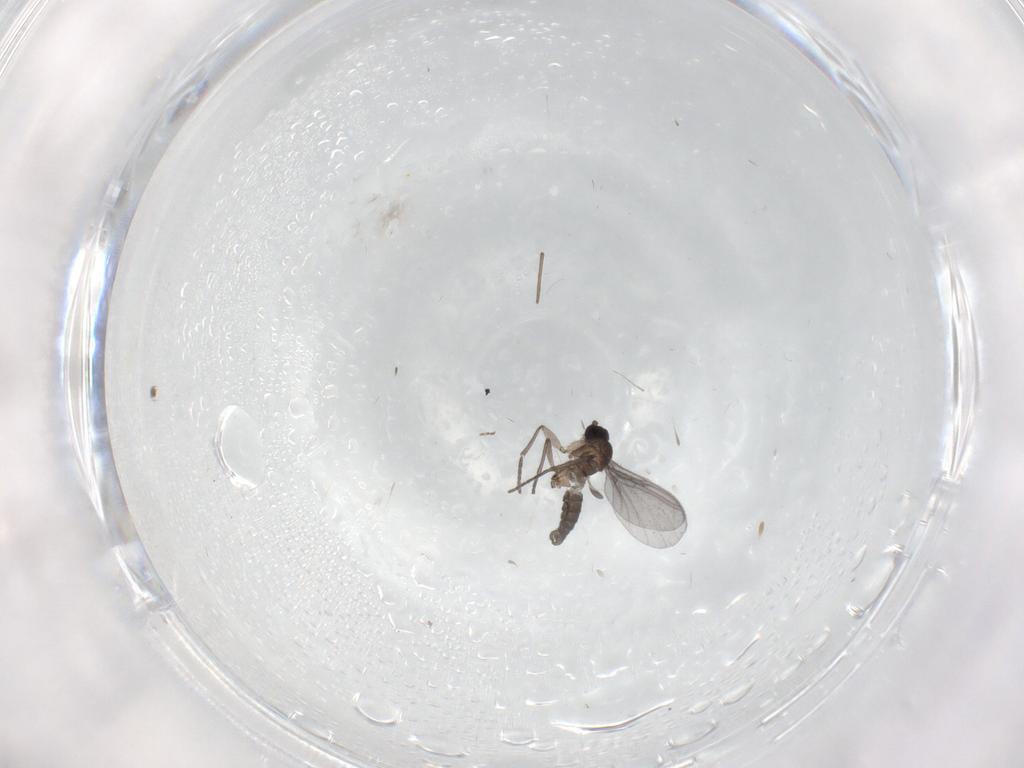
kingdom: Animalia
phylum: Arthropoda
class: Insecta
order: Diptera
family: Sciaridae
